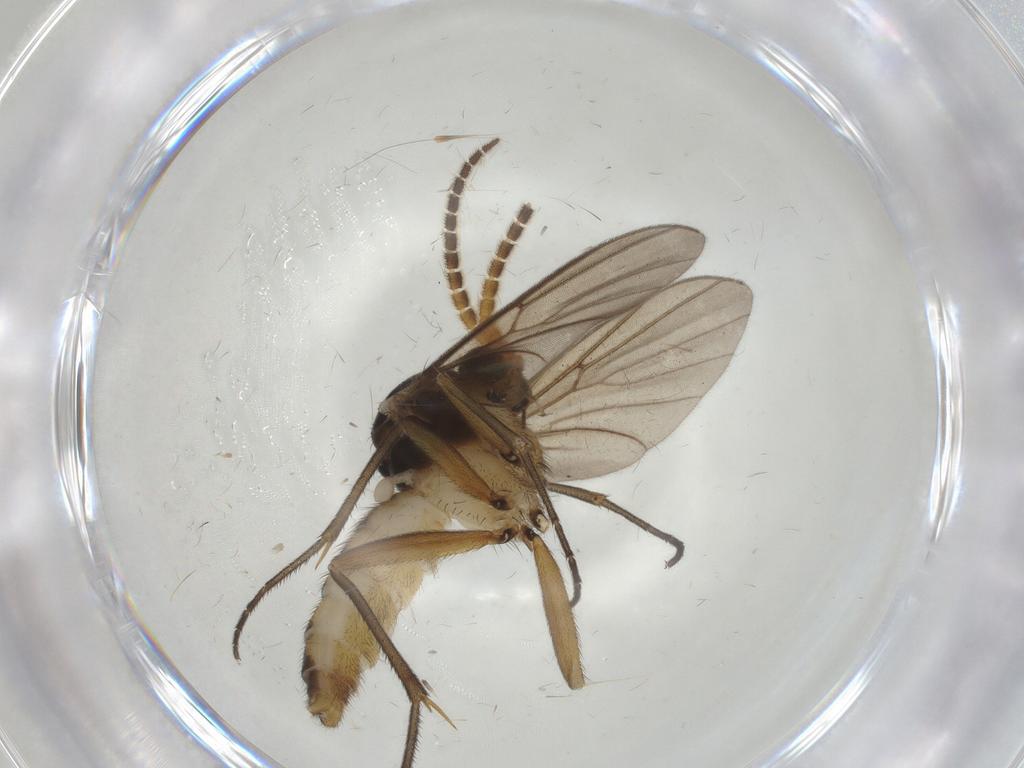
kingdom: Animalia
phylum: Arthropoda
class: Insecta
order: Diptera
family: Mycetophilidae
